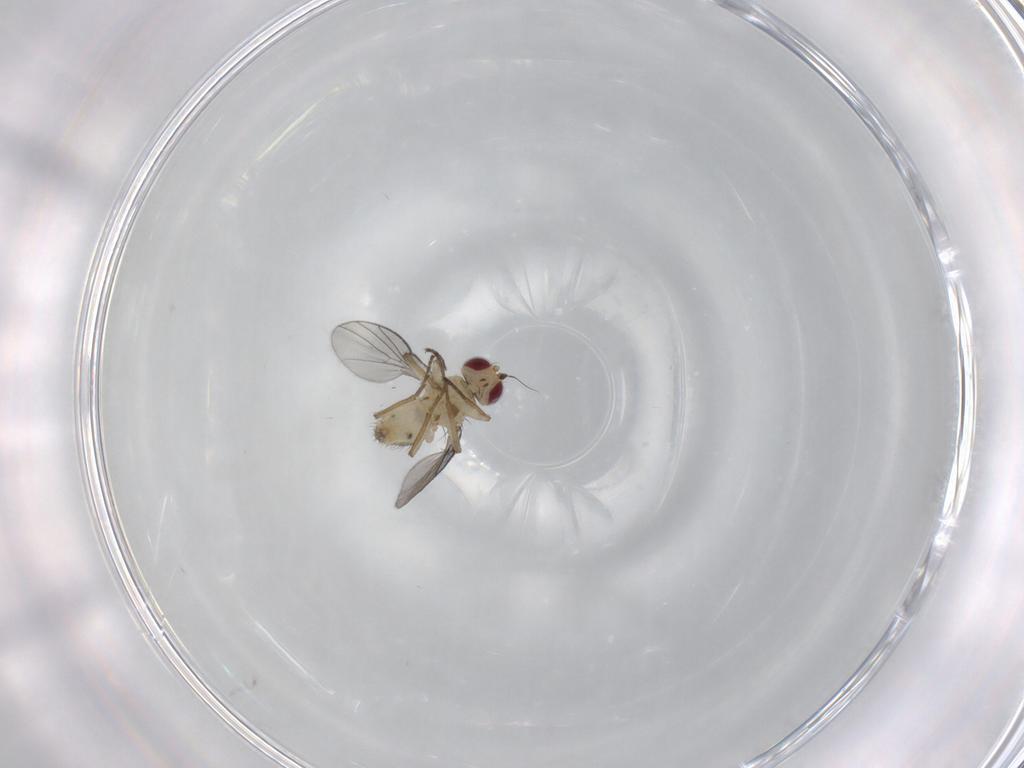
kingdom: Animalia
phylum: Arthropoda
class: Insecta
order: Diptera
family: Agromyzidae
